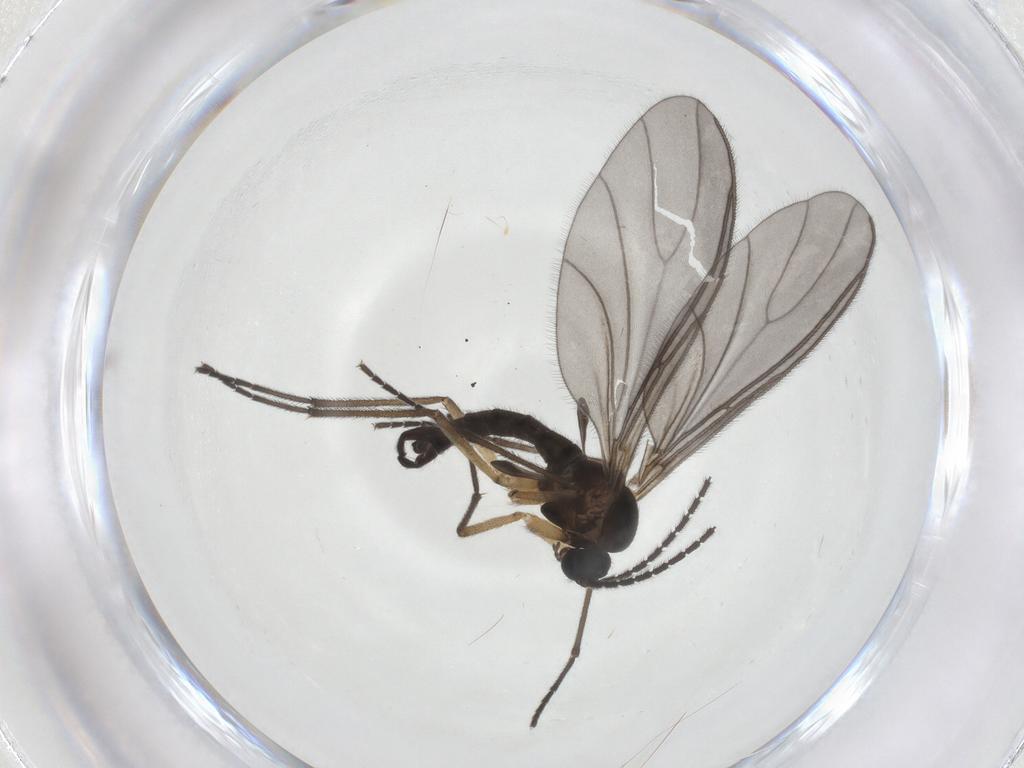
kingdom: Animalia
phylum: Arthropoda
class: Insecta
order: Diptera
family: Sciaridae
